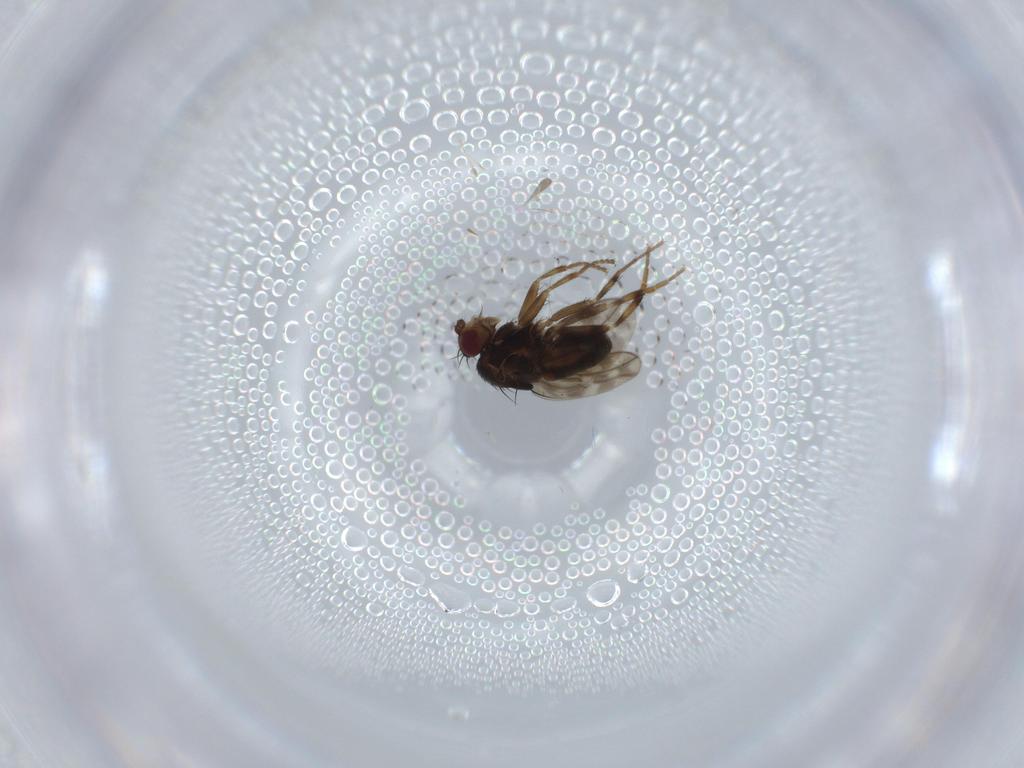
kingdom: Animalia
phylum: Arthropoda
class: Insecta
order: Diptera
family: Sphaeroceridae
